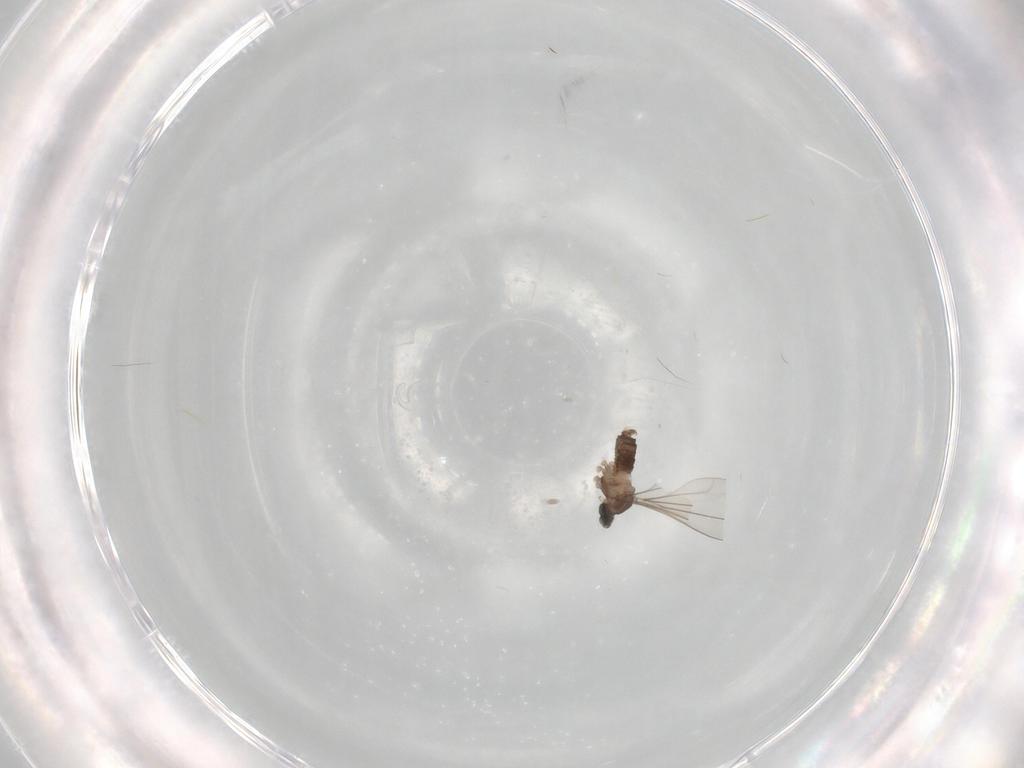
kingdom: Animalia
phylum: Arthropoda
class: Insecta
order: Diptera
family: Cecidomyiidae
